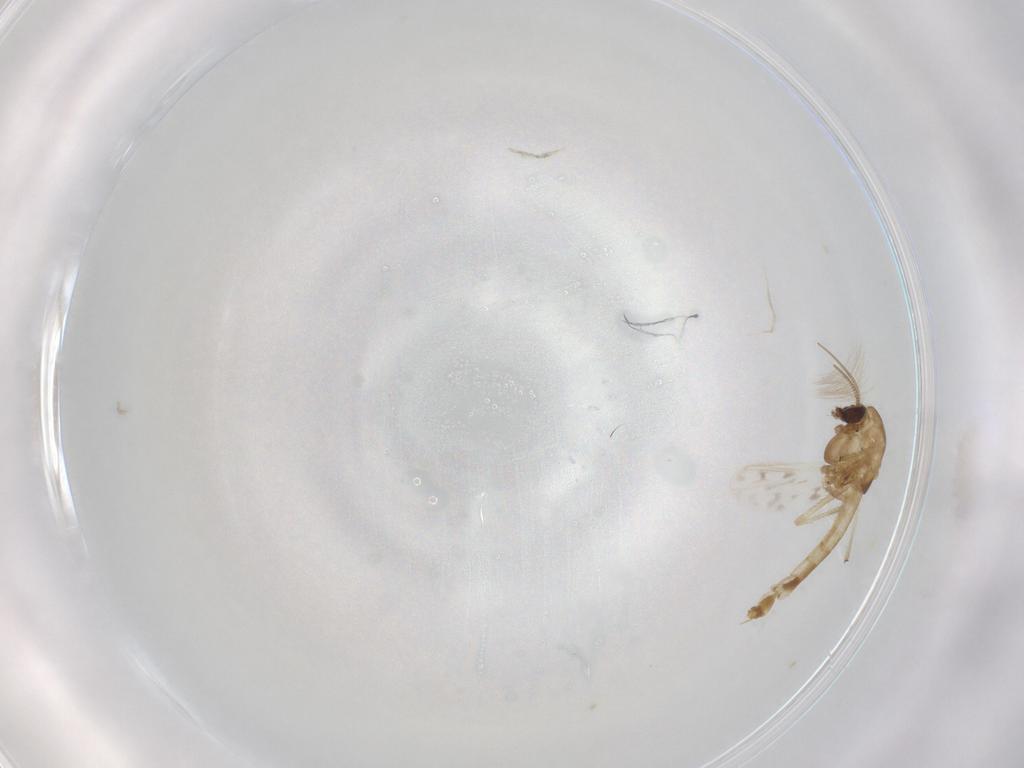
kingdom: Animalia
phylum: Arthropoda
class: Insecta
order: Diptera
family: Chironomidae
